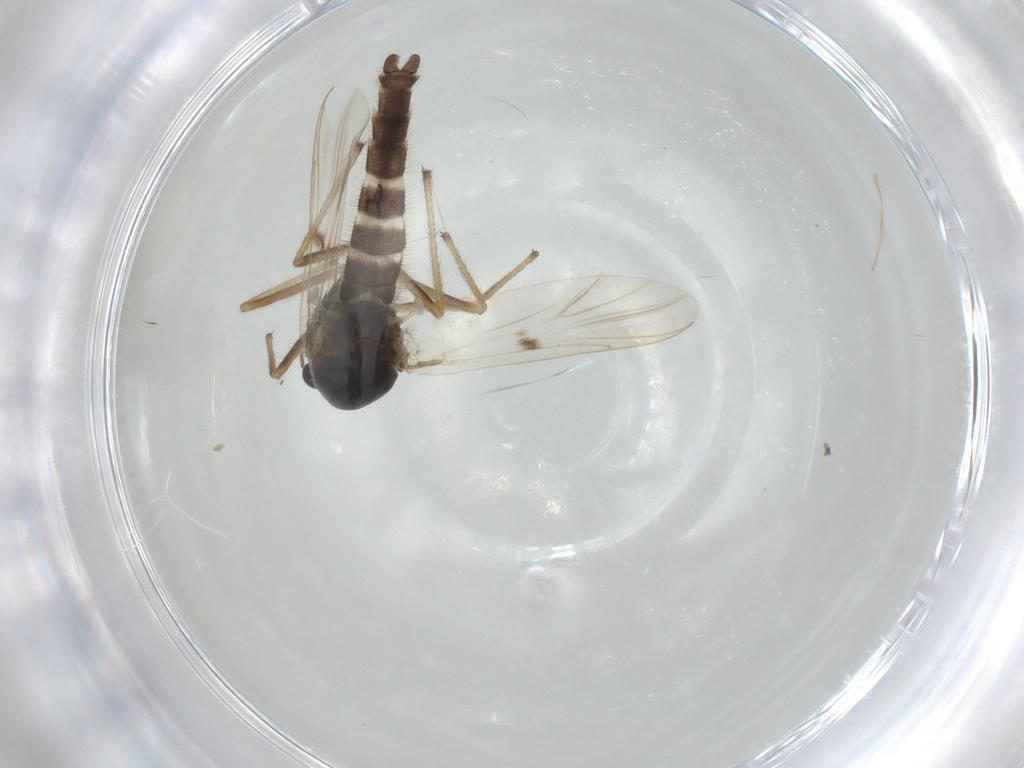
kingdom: Animalia
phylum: Arthropoda
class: Insecta
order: Diptera
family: Chironomidae
